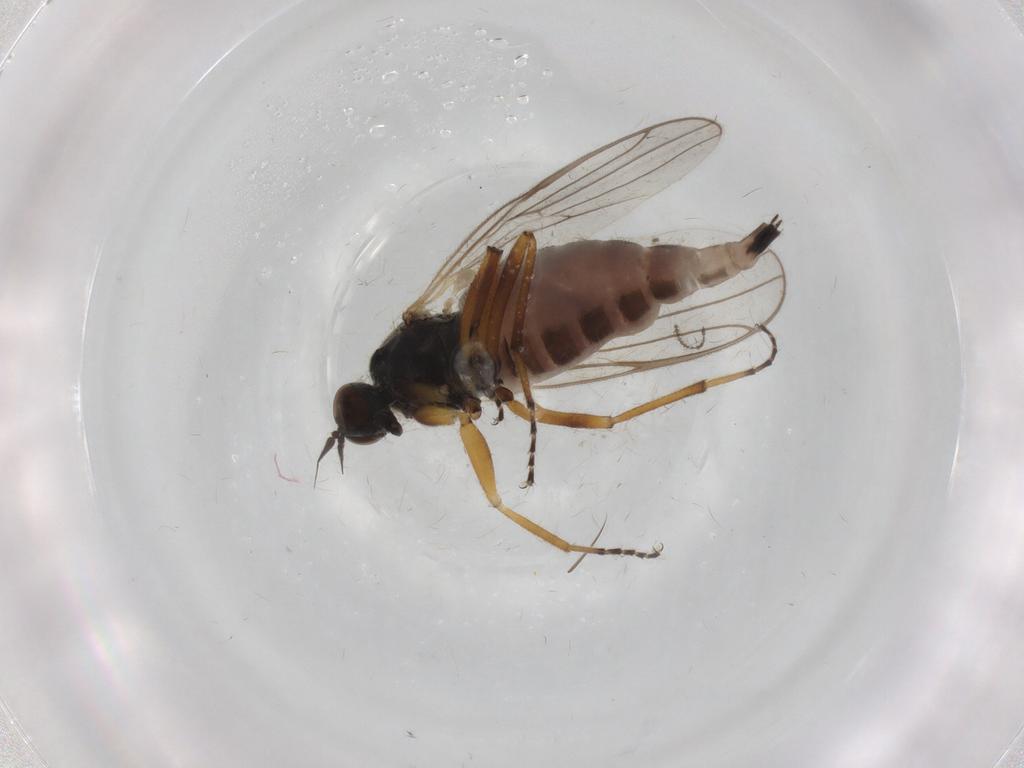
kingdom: Animalia
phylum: Arthropoda
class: Insecta
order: Diptera
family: Hybotidae
